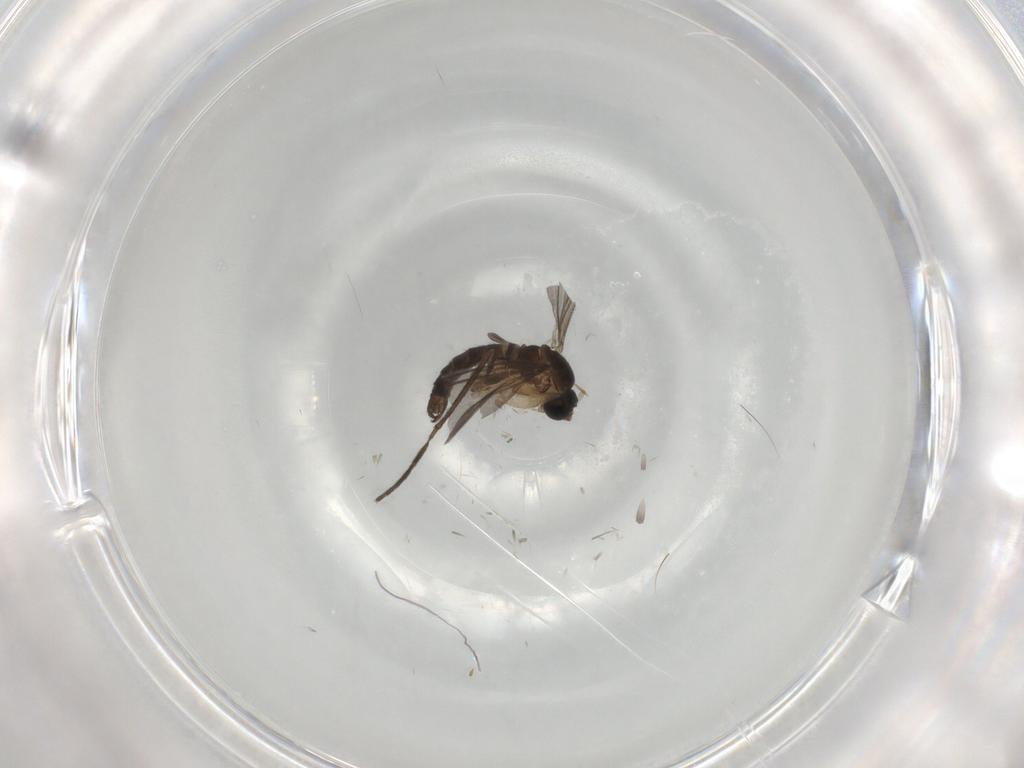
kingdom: Animalia
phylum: Arthropoda
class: Insecta
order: Diptera
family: Sciaridae
